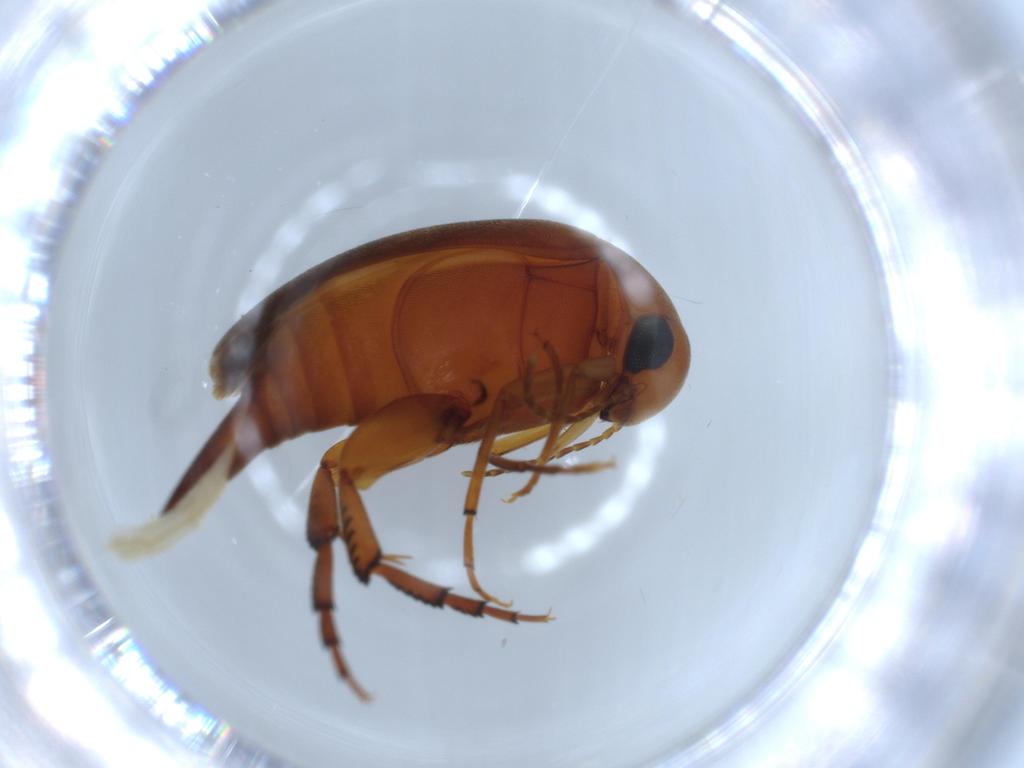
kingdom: Animalia
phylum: Arthropoda
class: Insecta
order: Coleoptera
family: Mordellidae
